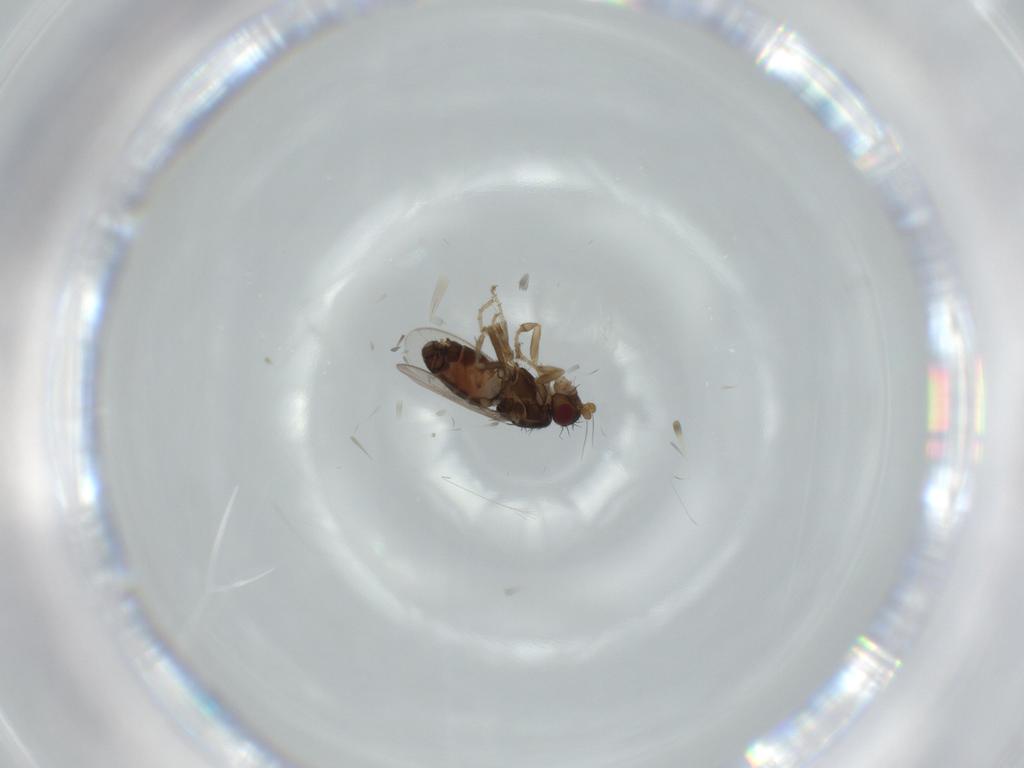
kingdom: Animalia
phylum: Arthropoda
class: Insecta
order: Diptera
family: Sphaeroceridae
